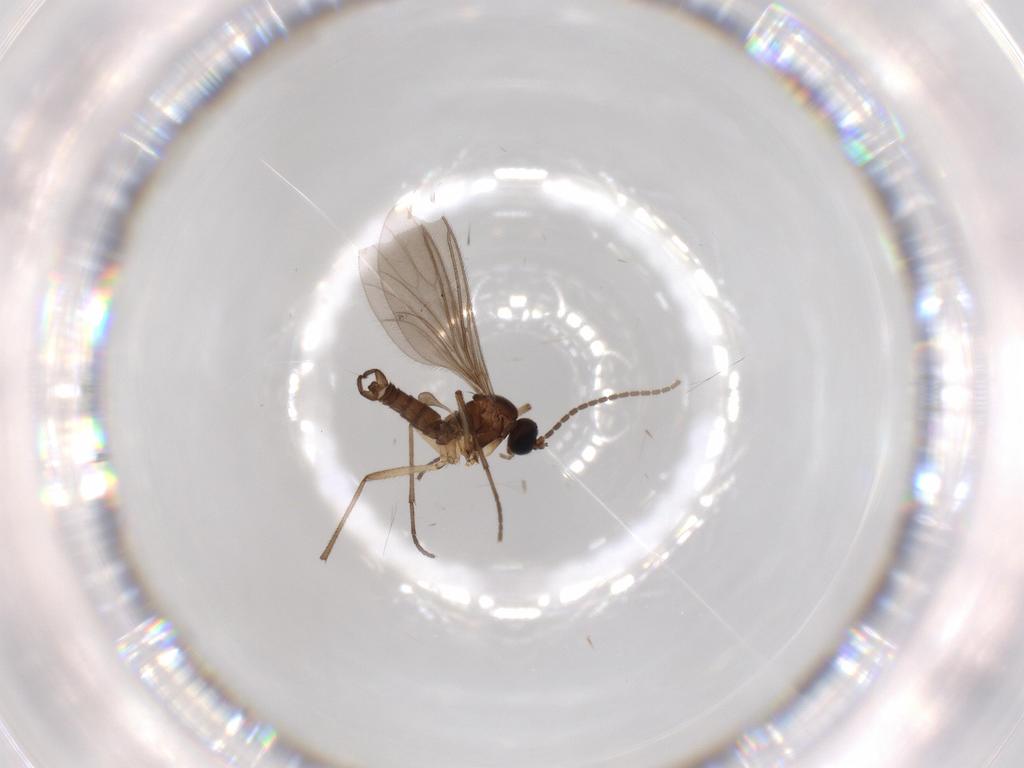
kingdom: Animalia
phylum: Arthropoda
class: Insecta
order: Diptera
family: Sciaridae
